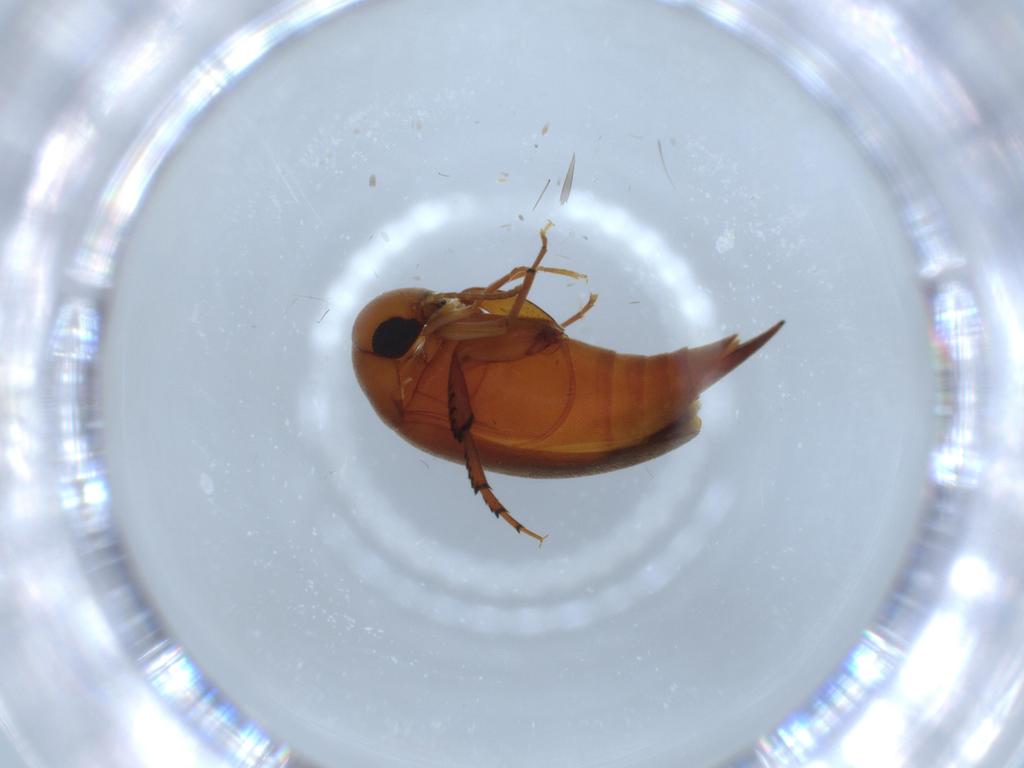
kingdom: Animalia
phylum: Arthropoda
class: Insecta
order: Coleoptera
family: Mordellidae
